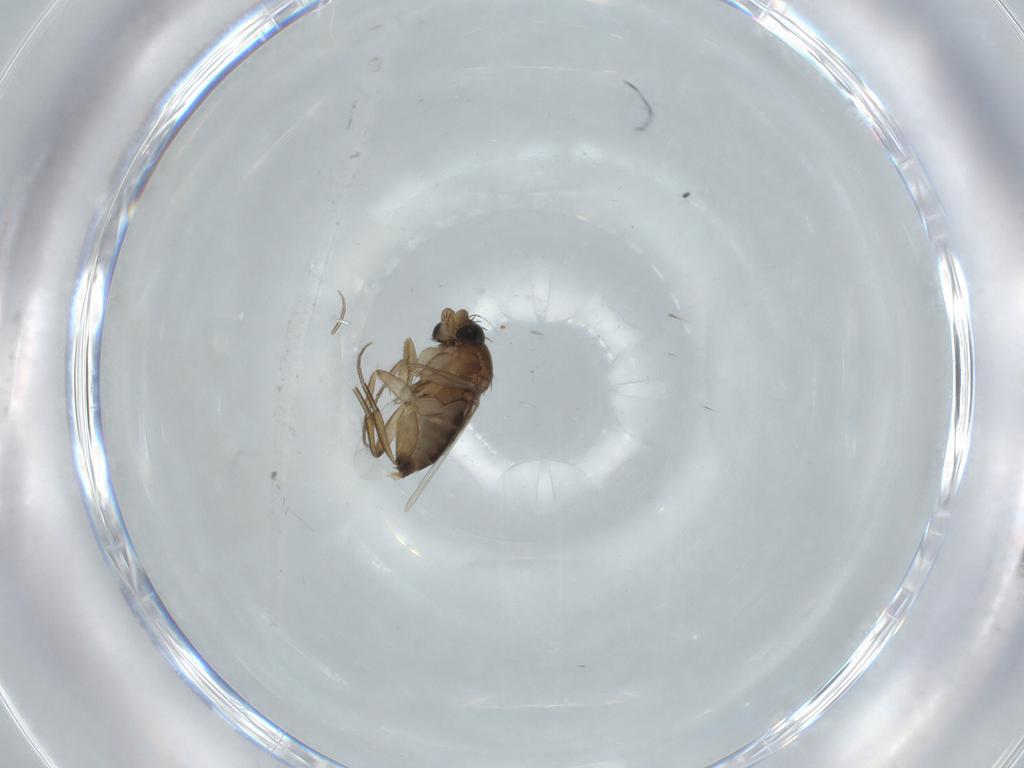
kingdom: Animalia
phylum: Arthropoda
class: Insecta
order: Diptera
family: Phoridae
